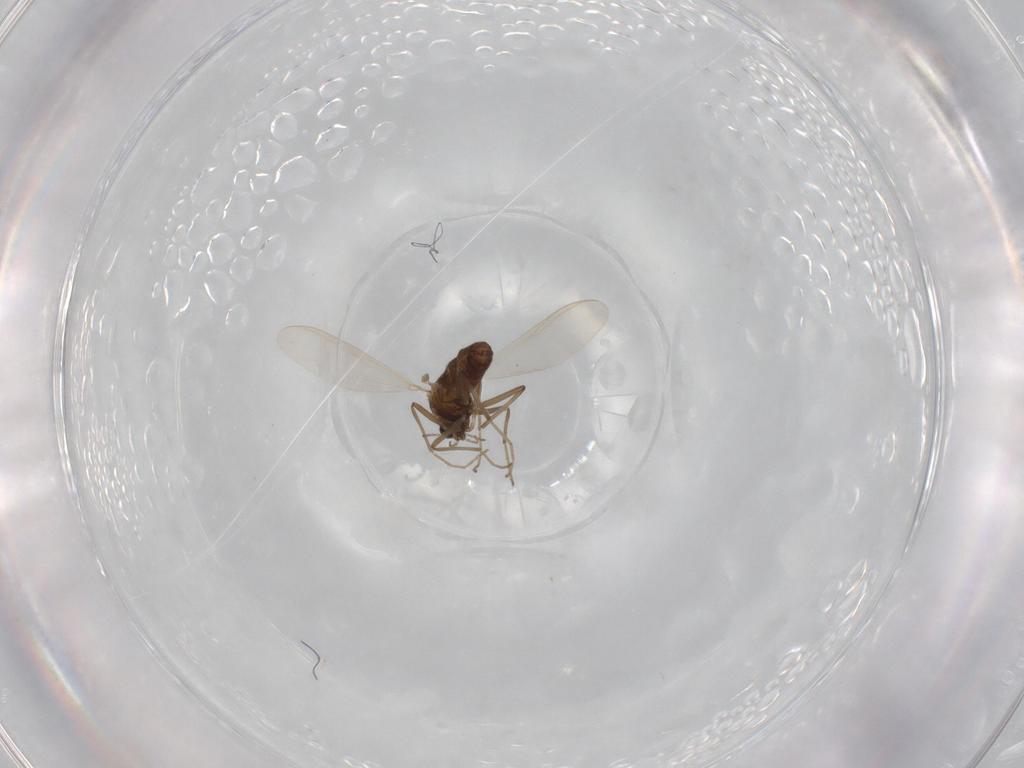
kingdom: Animalia
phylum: Arthropoda
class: Insecta
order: Diptera
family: Chironomidae
